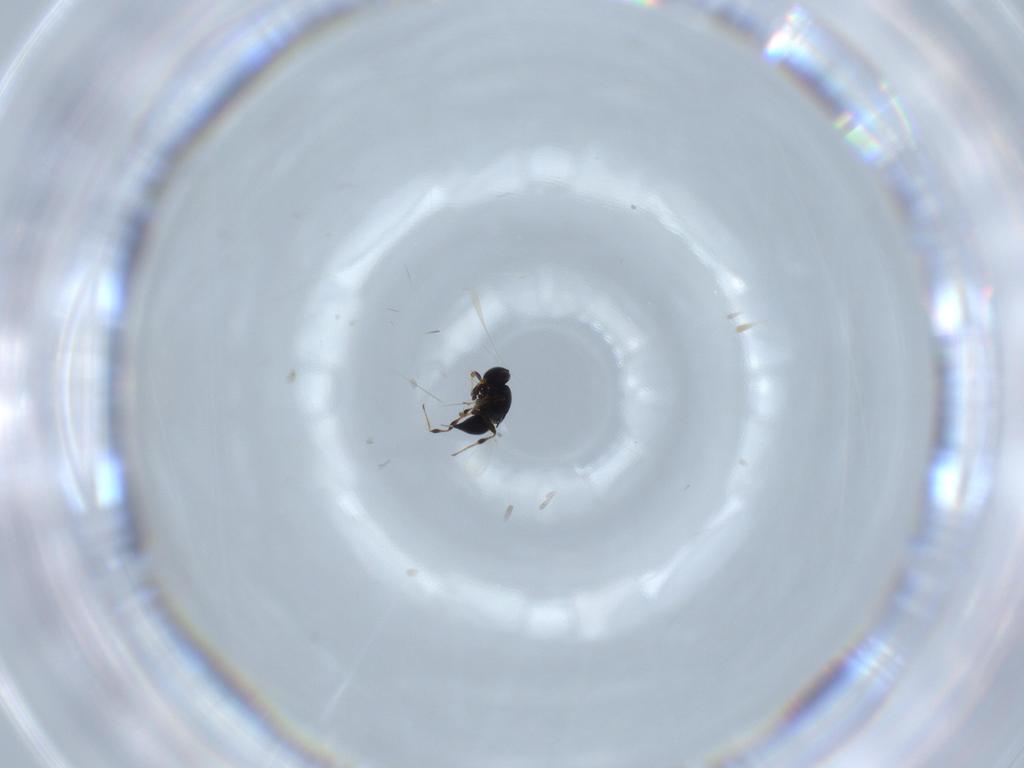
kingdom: Animalia
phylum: Arthropoda
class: Insecta
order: Hymenoptera
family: Platygastridae
